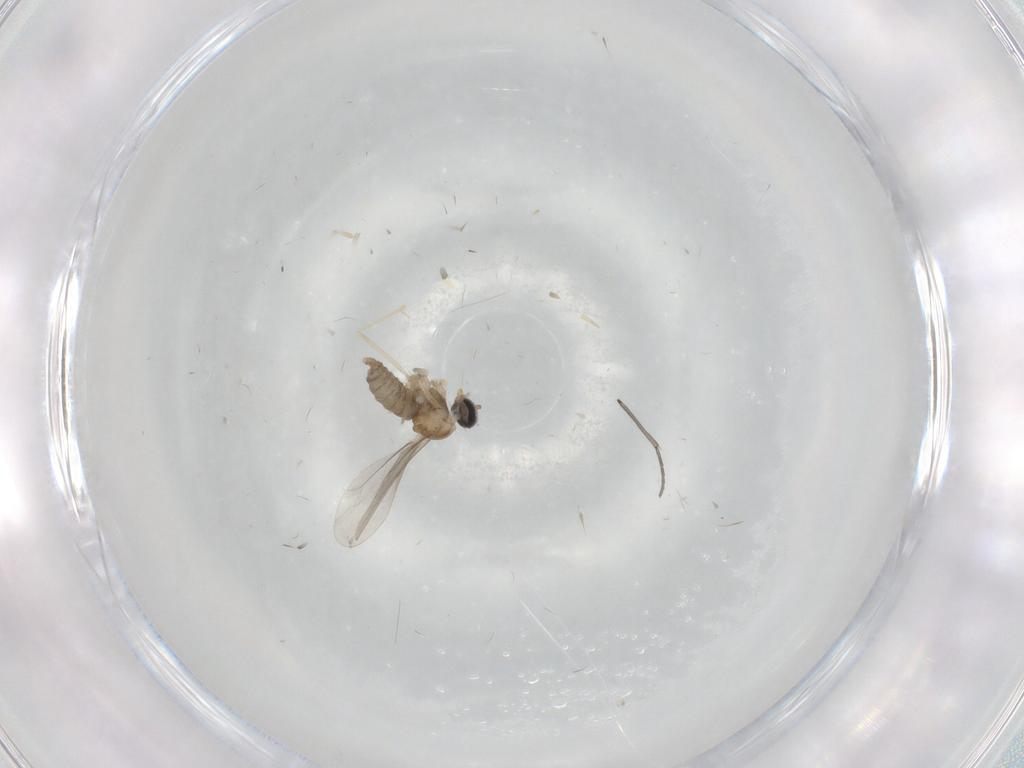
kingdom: Animalia
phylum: Arthropoda
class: Insecta
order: Diptera
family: Cecidomyiidae
